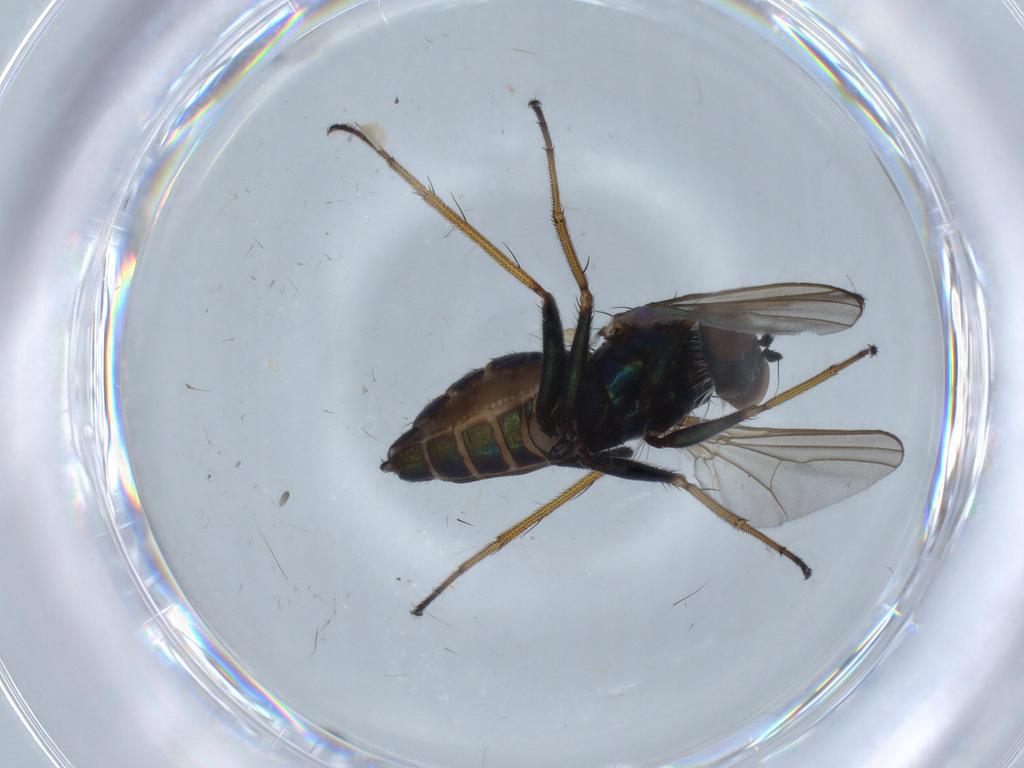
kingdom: Animalia
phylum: Arthropoda
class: Insecta
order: Diptera
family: Dolichopodidae
